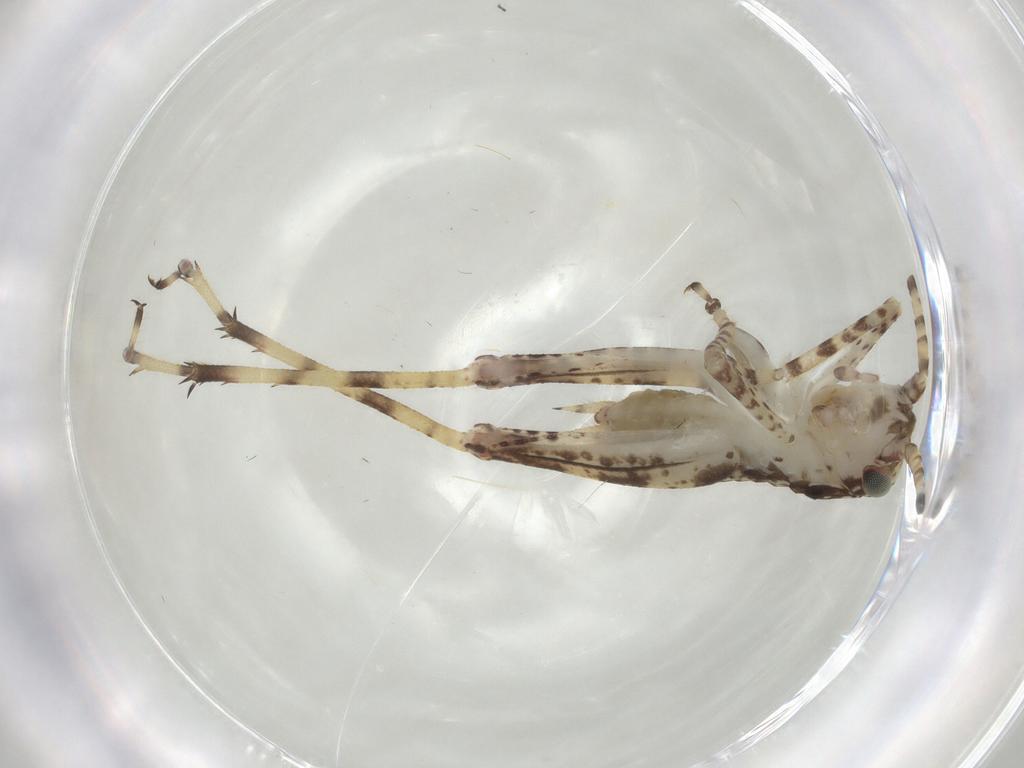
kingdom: Animalia
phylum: Arthropoda
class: Insecta
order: Orthoptera
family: Gryllidae
